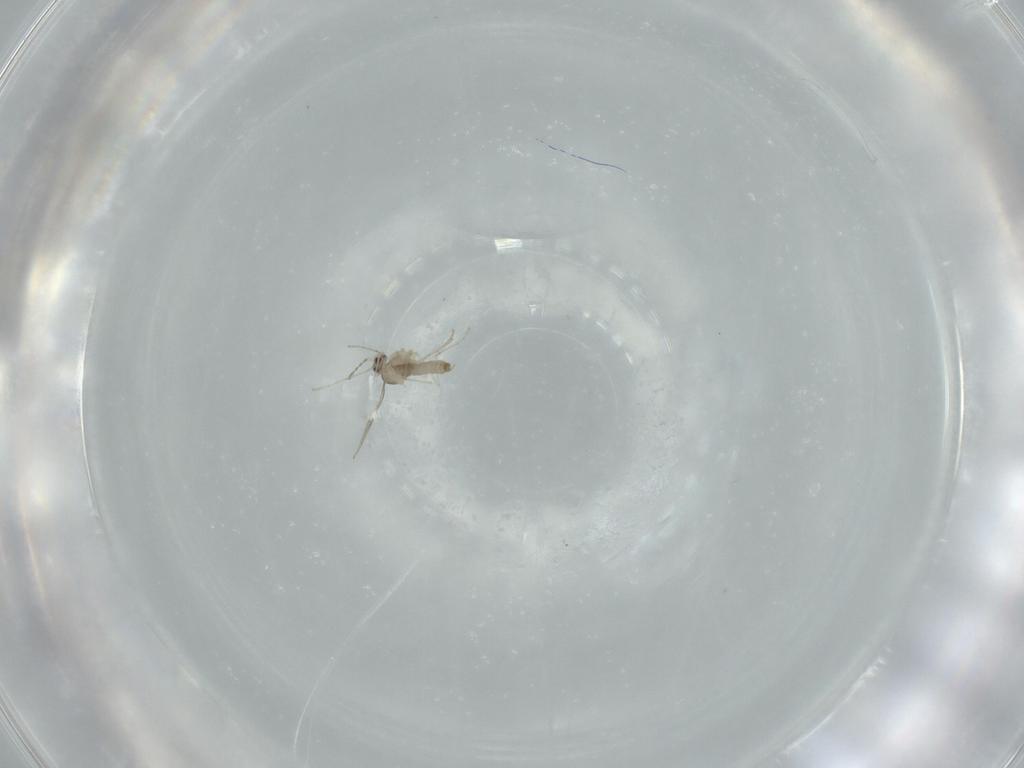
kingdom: Animalia
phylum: Arthropoda
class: Insecta
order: Diptera
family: Cecidomyiidae
